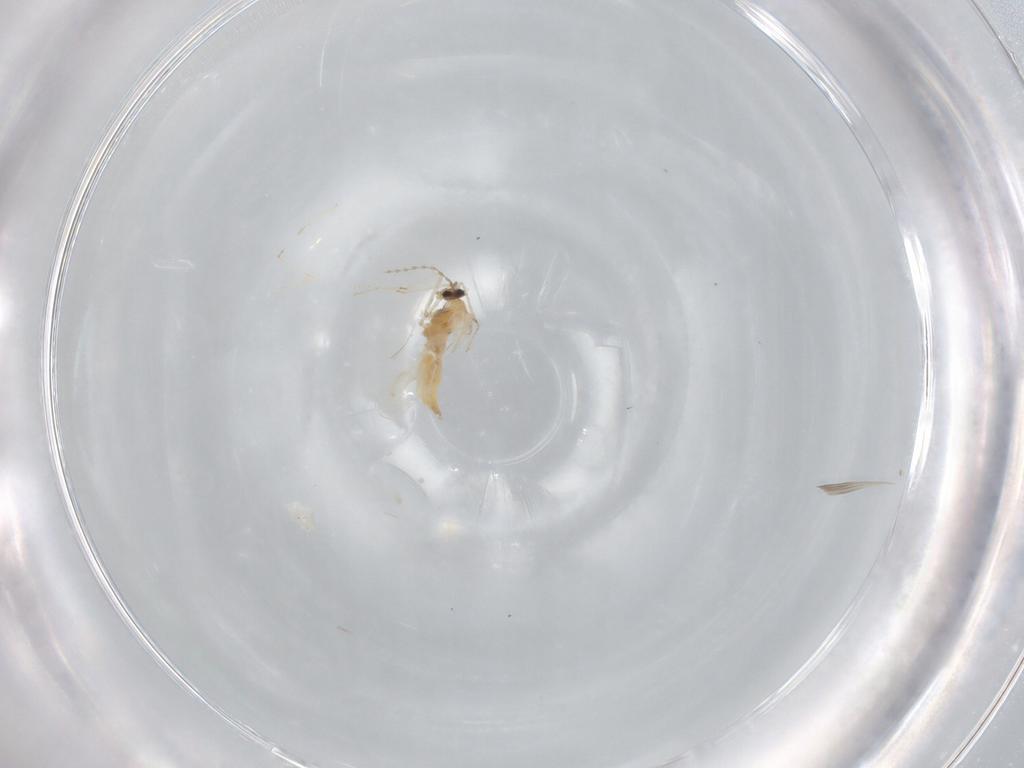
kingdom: Animalia
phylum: Arthropoda
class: Insecta
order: Diptera
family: Cecidomyiidae
